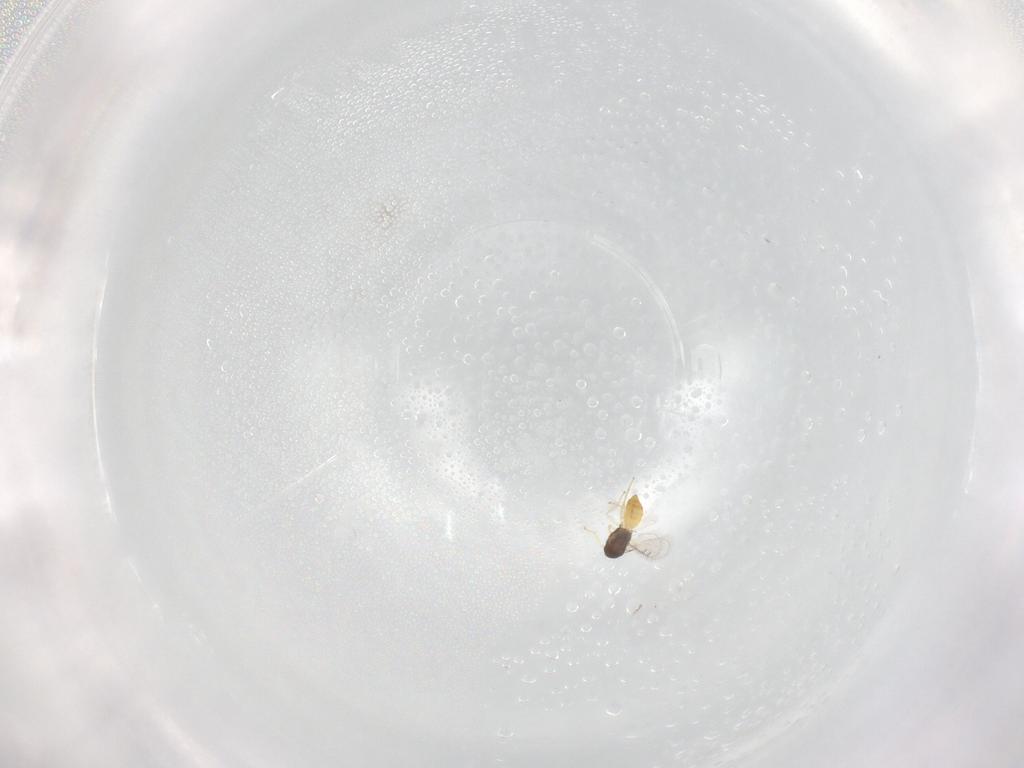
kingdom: Animalia
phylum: Arthropoda
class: Insecta
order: Hymenoptera
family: Eulophidae
